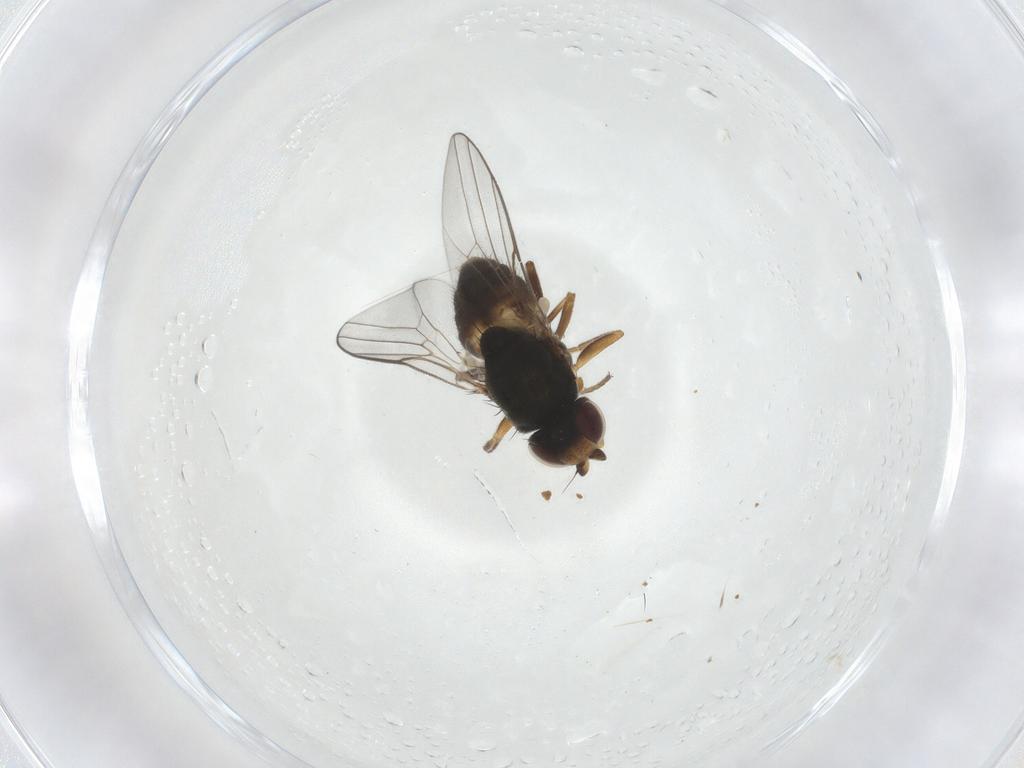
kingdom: Animalia
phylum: Arthropoda
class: Insecta
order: Diptera
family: Chloropidae
